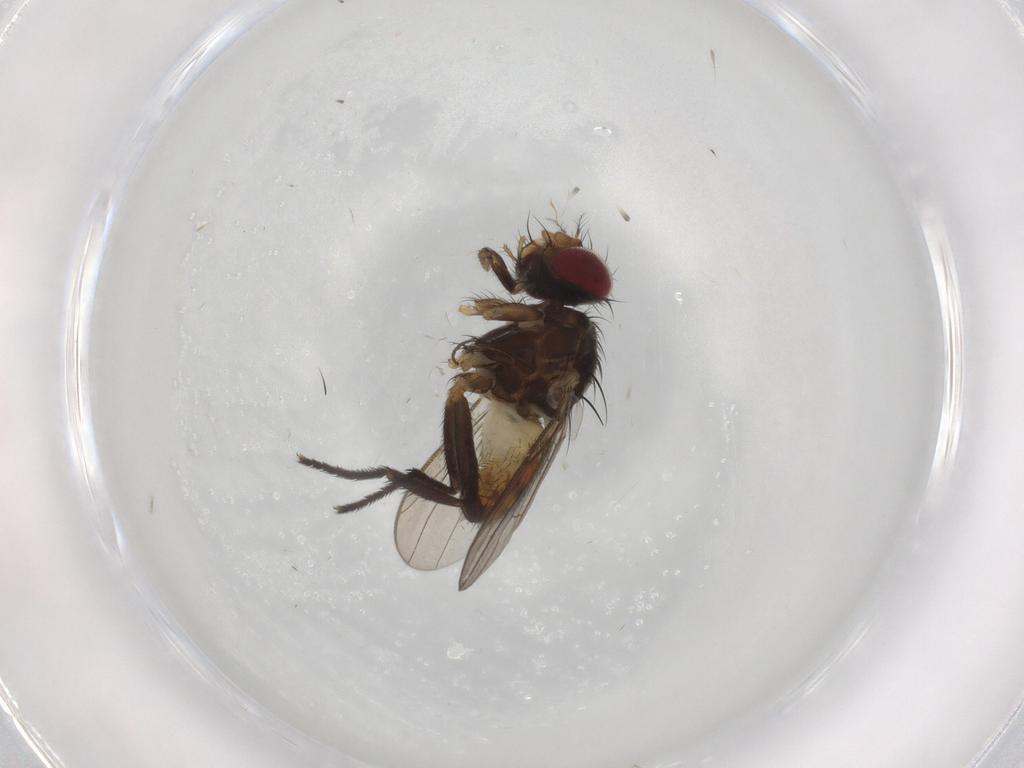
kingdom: Animalia
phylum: Arthropoda
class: Insecta
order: Diptera
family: Anthomyiidae
